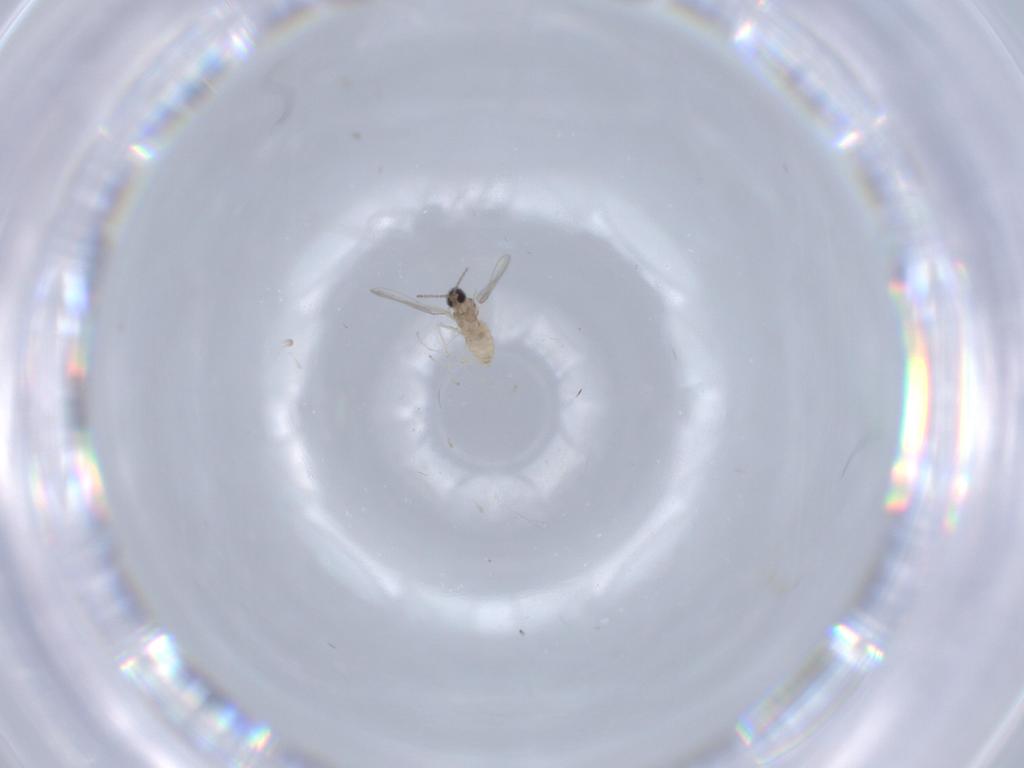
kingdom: Animalia
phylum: Arthropoda
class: Insecta
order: Diptera
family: Cecidomyiidae
